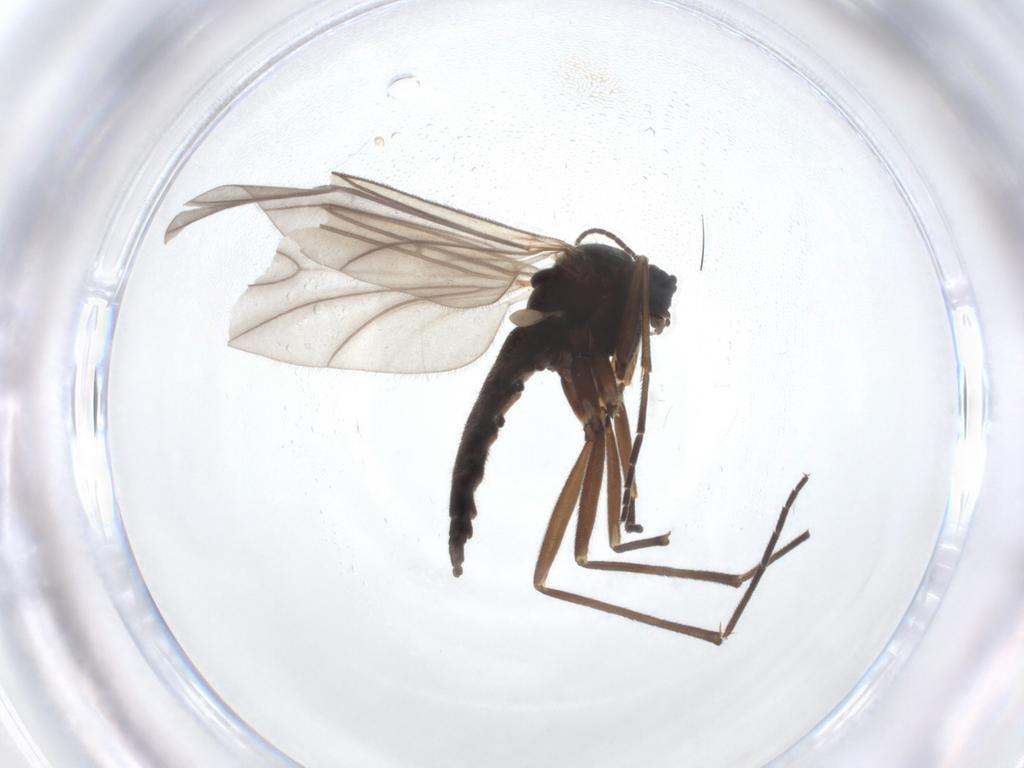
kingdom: Animalia
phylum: Arthropoda
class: Insecta
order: Diptera
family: Sciaridae
